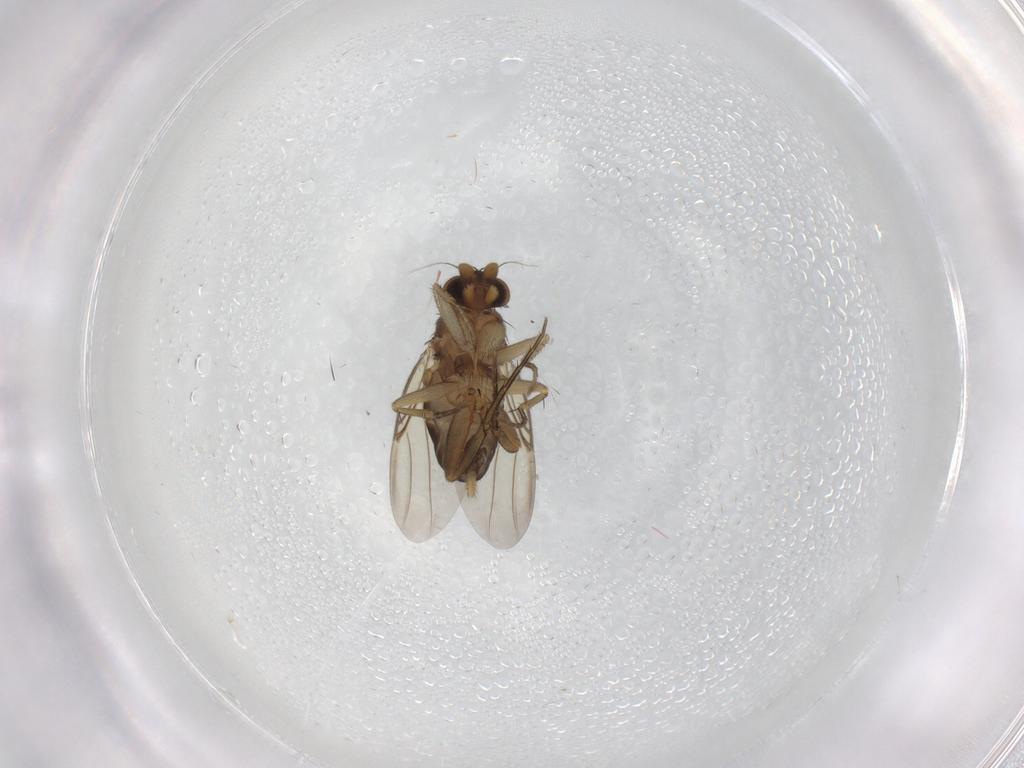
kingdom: Animalia
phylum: Arthropoda
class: Insecta
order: Diptera
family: Phoridae
